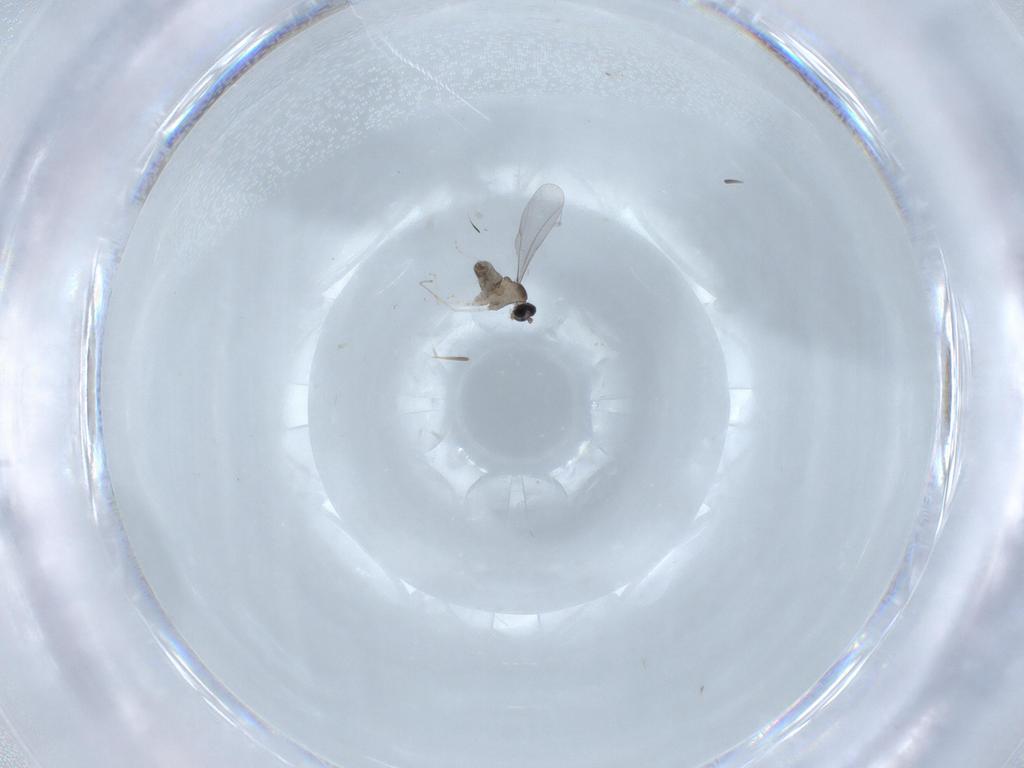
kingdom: Animalia
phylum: Arthropoda
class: Insecta
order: Diptera
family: Cecidomyiidae
